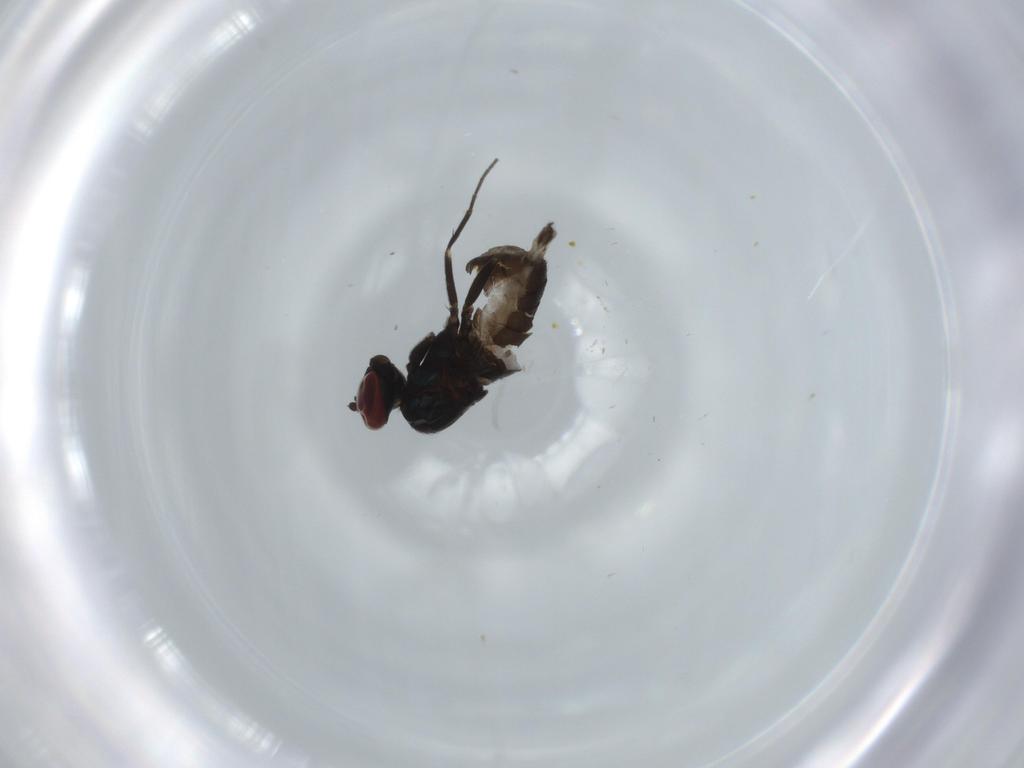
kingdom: Animalia
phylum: Arthropoda
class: Insecta
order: Diptera
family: Dolichopodidae
